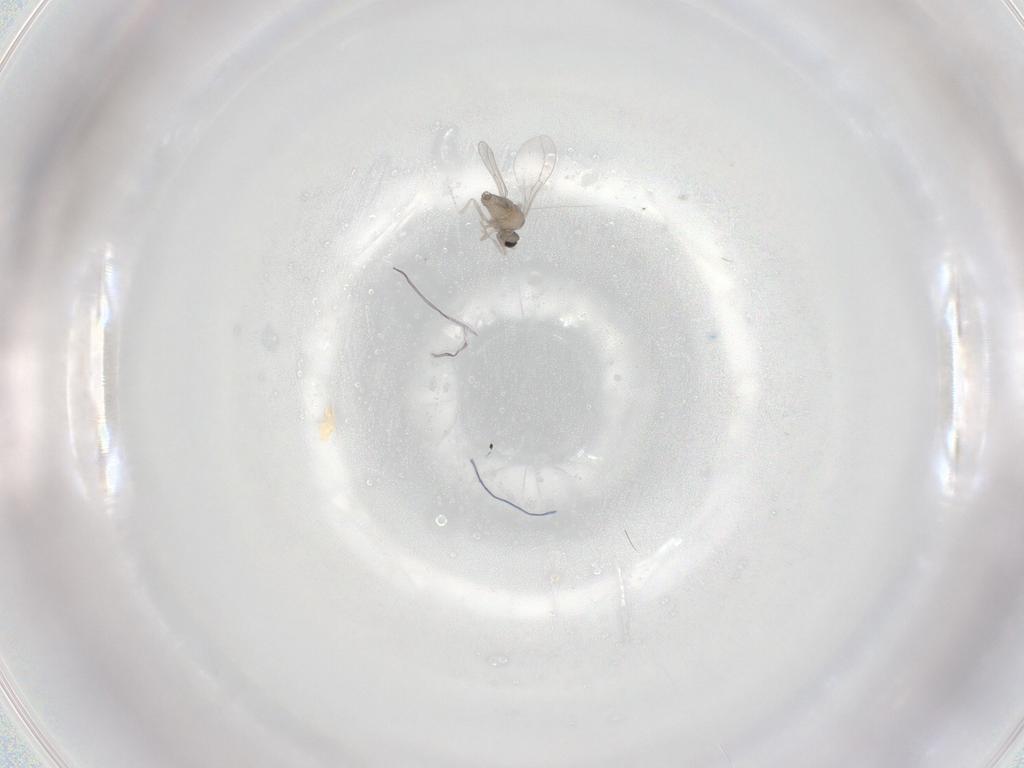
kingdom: Animalia
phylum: Arthropoda
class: Insecta
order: Diptera
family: Cecidomyiidae
